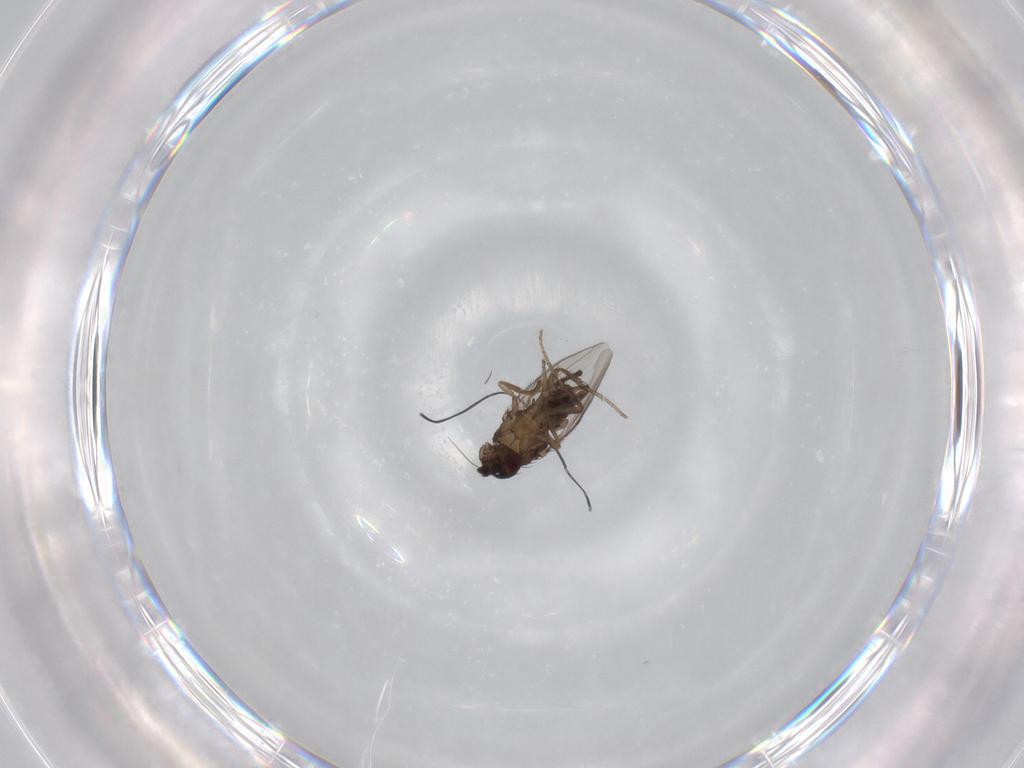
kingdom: Animalia
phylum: Arthropoda
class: Insecta
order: Diptera
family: Sphaeroceridae
